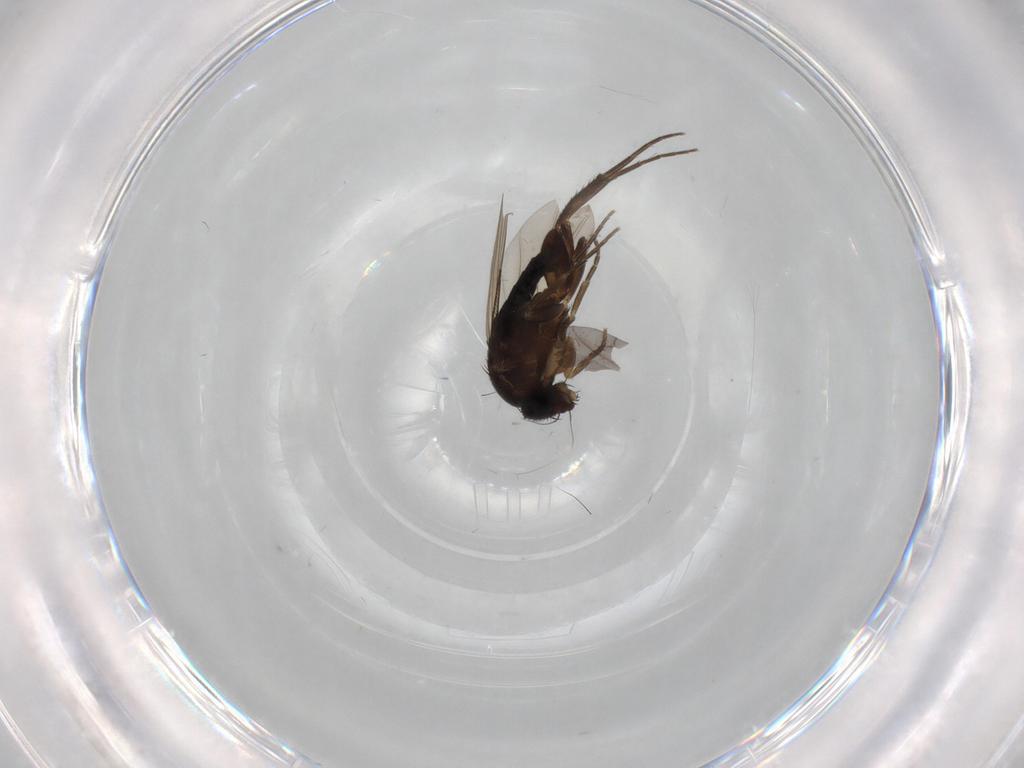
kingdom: Animalia
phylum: Arthropoda
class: Insecta
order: Diptera
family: Phoridae
